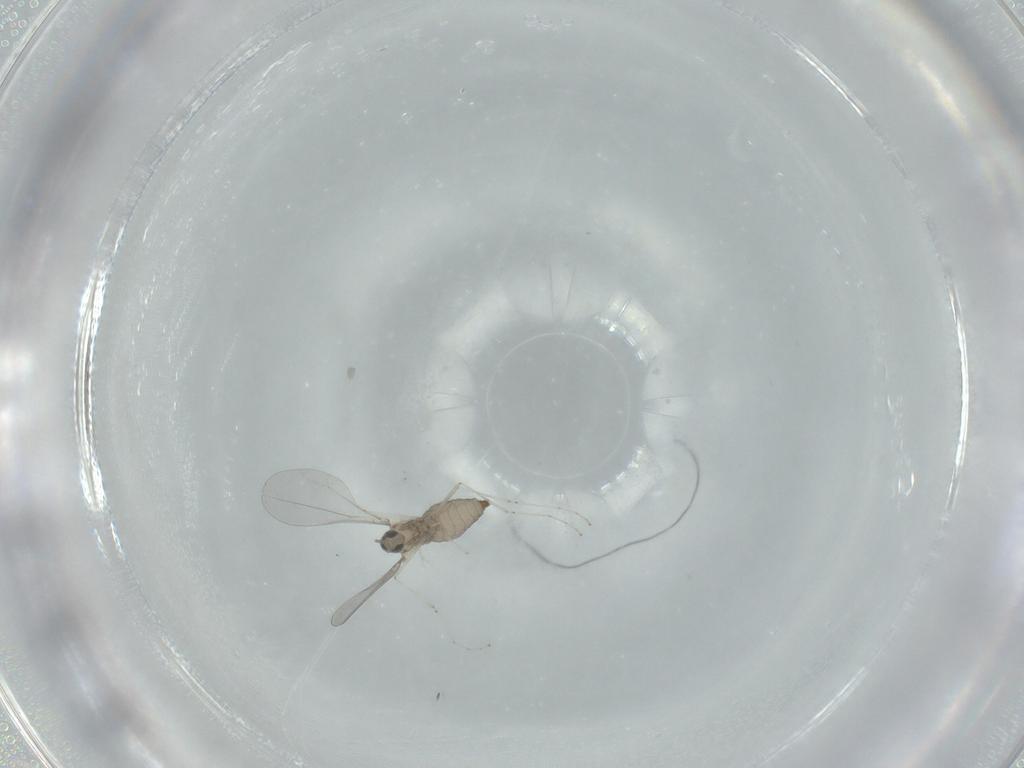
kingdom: Animalia
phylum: Arthropoda
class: Insecta
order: Diptera
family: Cecidomyiidae
